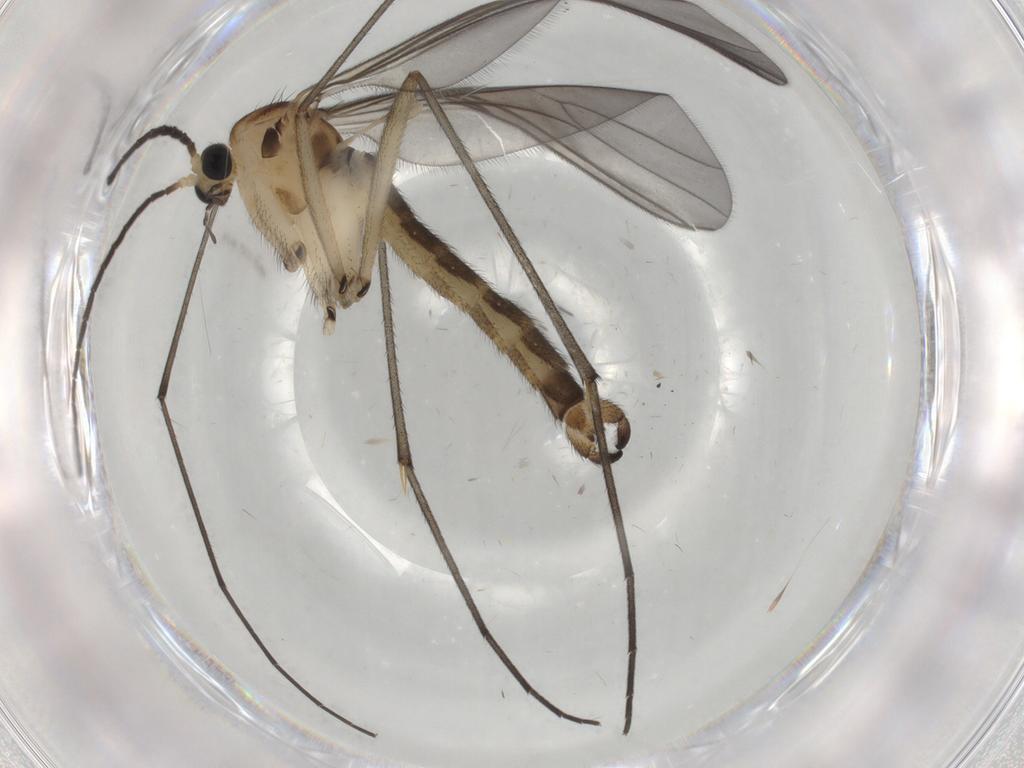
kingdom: Animalia
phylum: Arthropoda
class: Insecta
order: Diptera
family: Sciaridae
